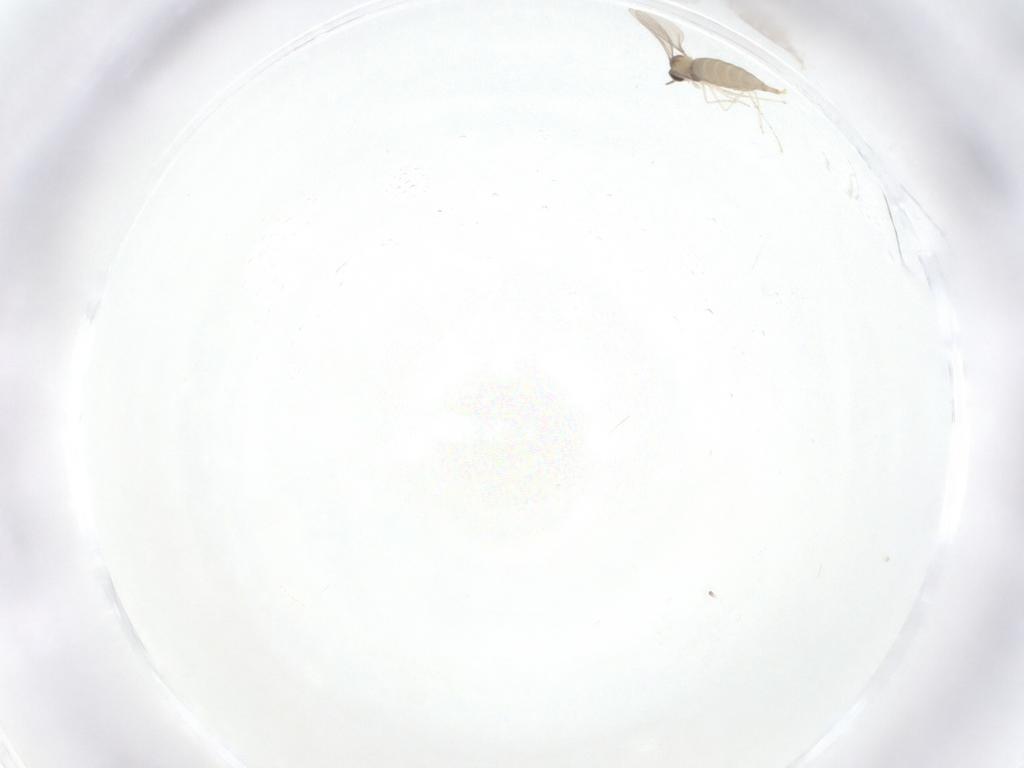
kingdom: Animalia
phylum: Arthropoda
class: Insecta
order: Diptera
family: Cecidomyiidae
